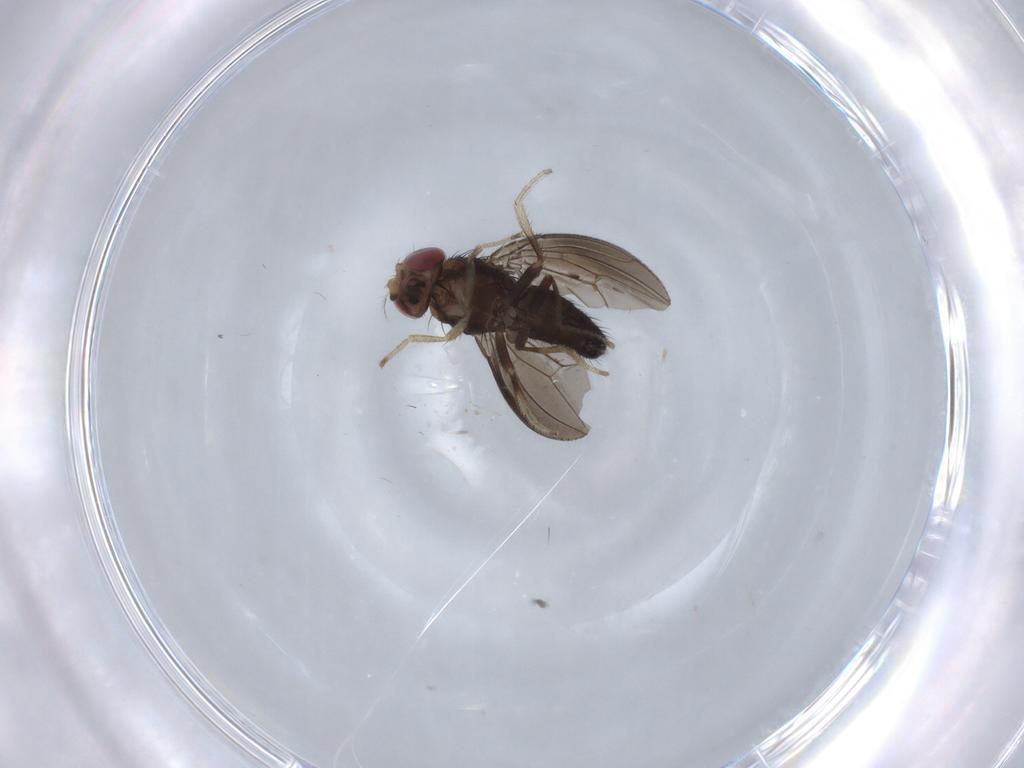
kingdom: Animalia
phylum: Arthropoda
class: Insecta
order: Diptera
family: Drosophilidae
